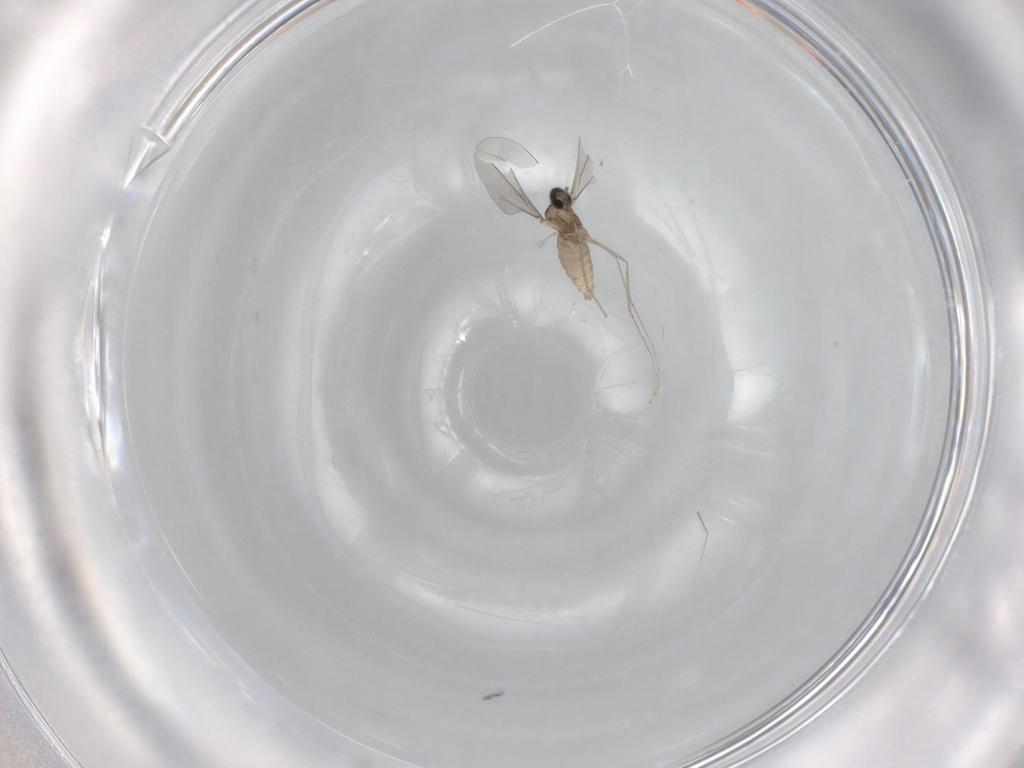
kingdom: Animalia
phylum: Arthropoda
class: Insecta
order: Diptera
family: Cecidomyiidae
